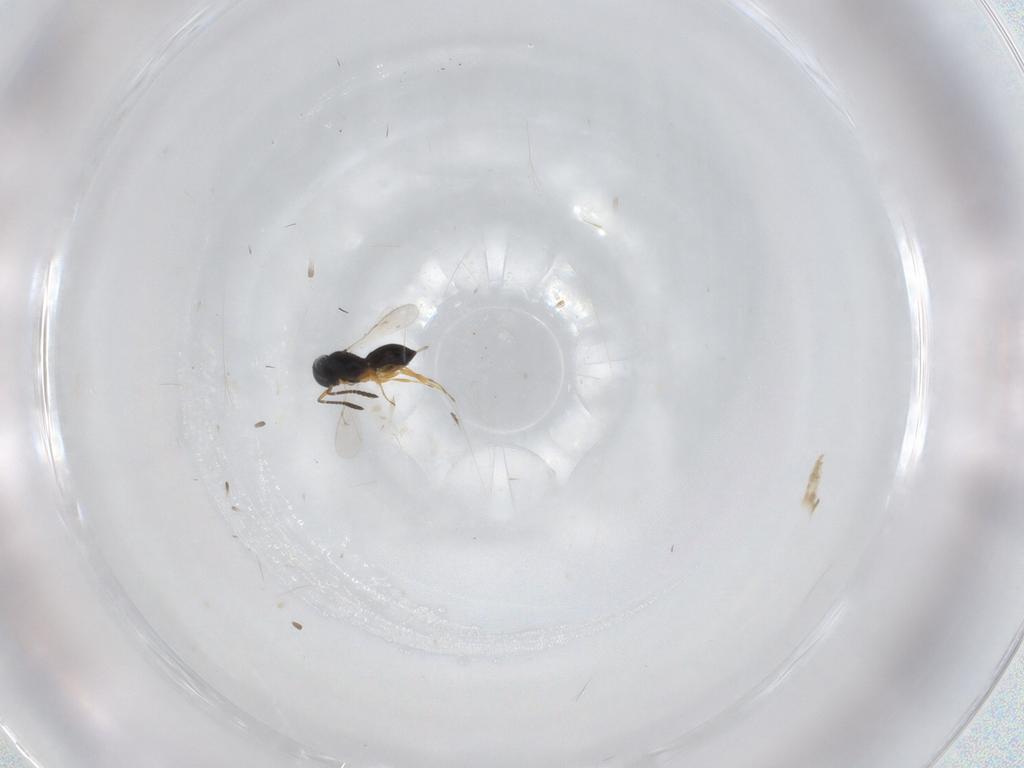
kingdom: Animalia
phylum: Arthropoda
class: Insecta
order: Hymenoptera
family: Scelionidae
